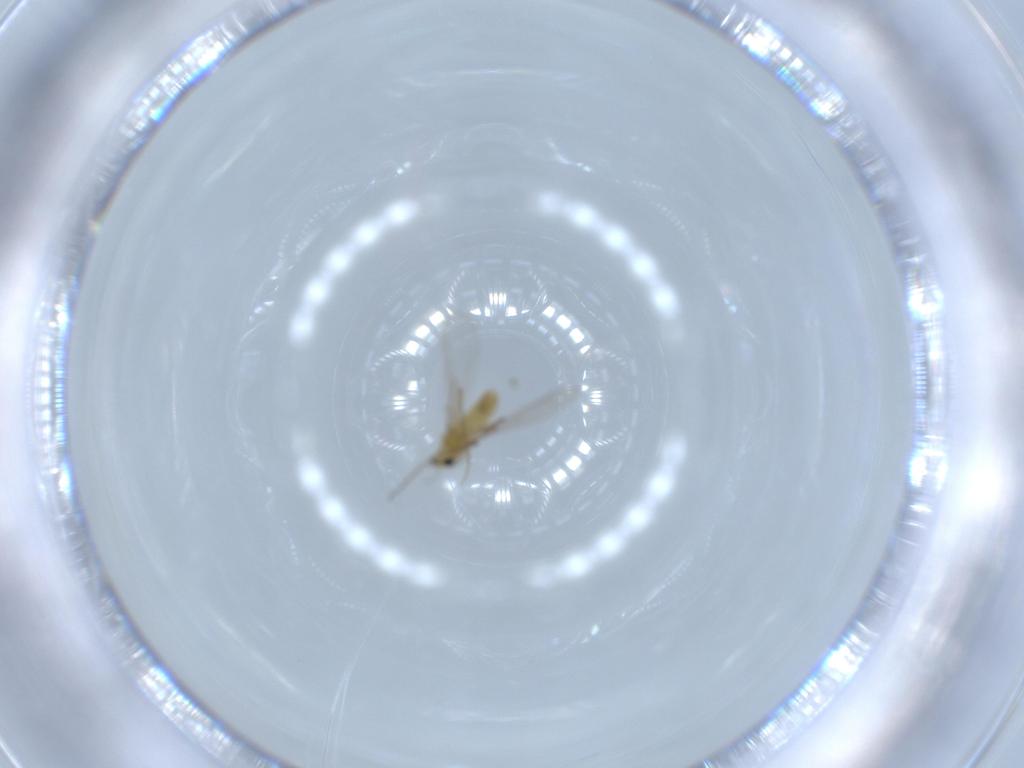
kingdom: Animalia
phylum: Arthropoda
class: Insecta
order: Diptera
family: Chironomidae
